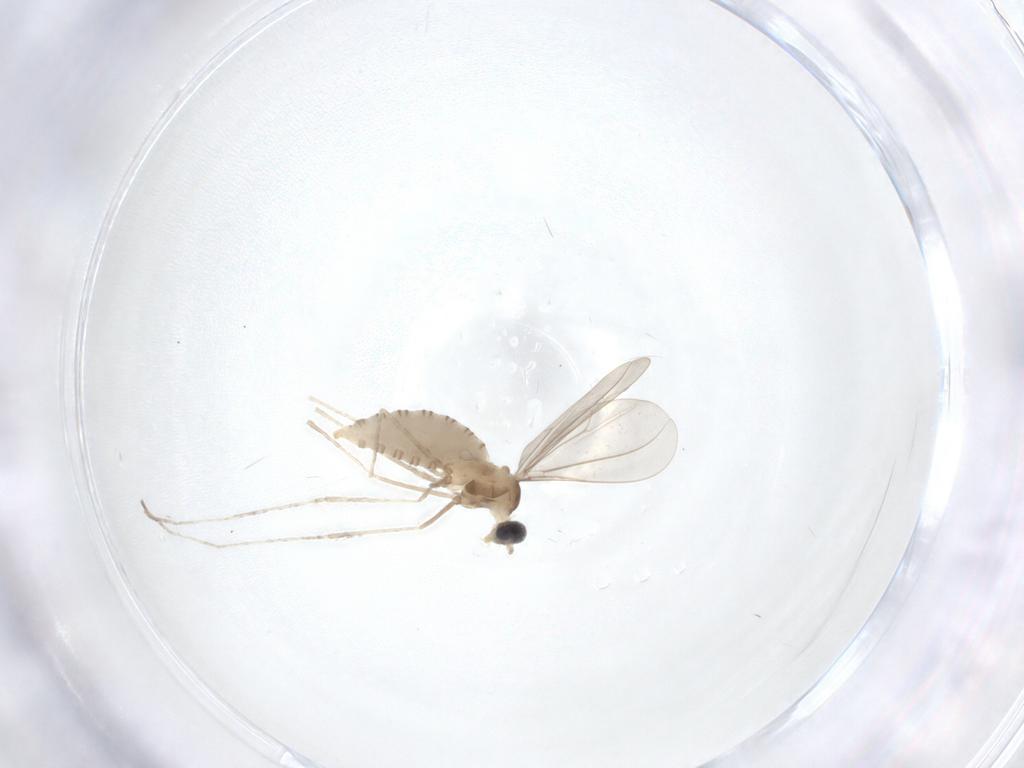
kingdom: Animalia
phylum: Arthropoda
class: Insecta
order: Diptera
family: Cecidomyiidae
